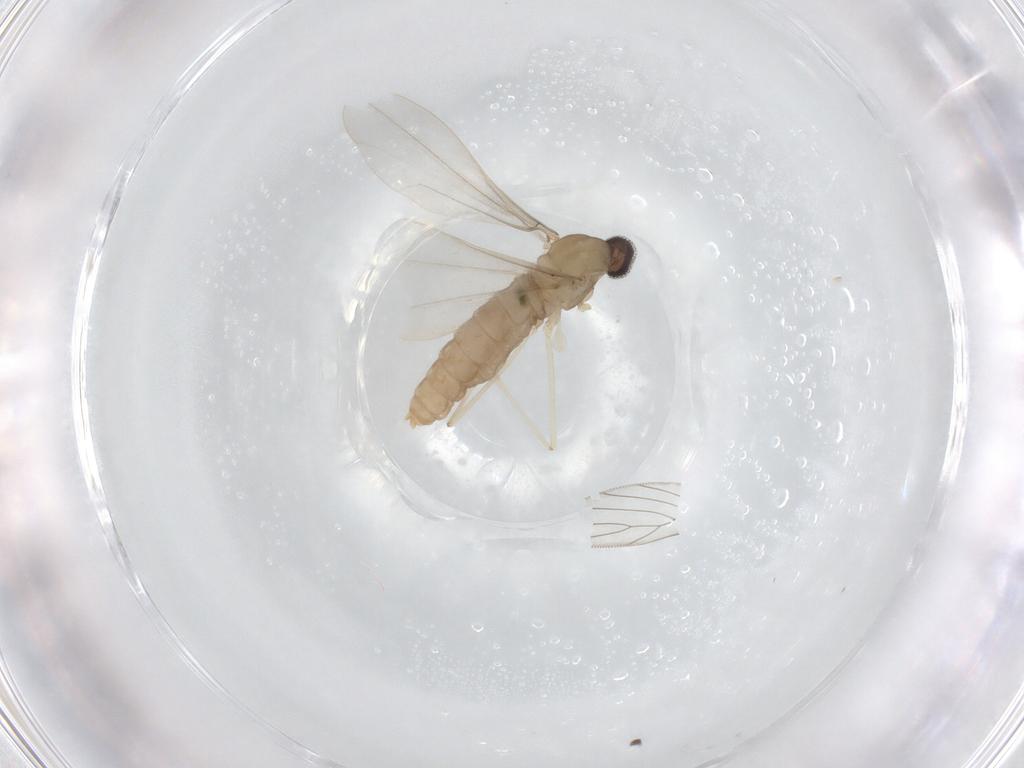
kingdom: Animalia
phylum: Arthropoda
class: Insecta
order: Diptera
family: Cecidomyiidae
